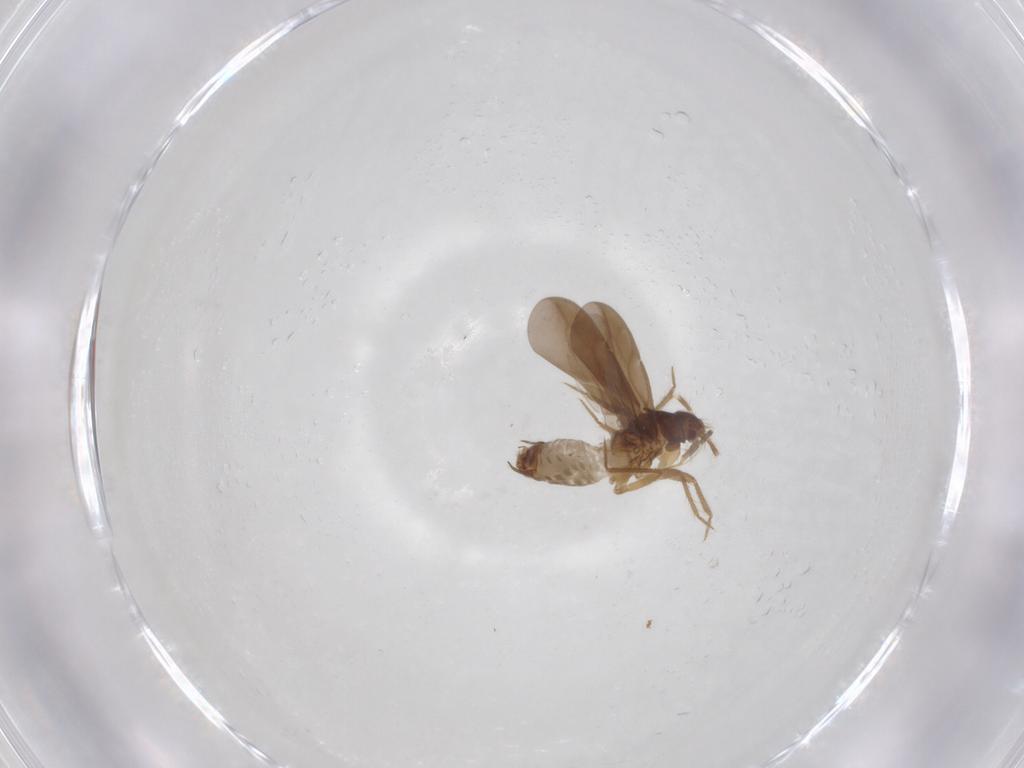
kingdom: Animalia
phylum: Arthropoda
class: Insecta
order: Hemiptera
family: Ceratocombidae
